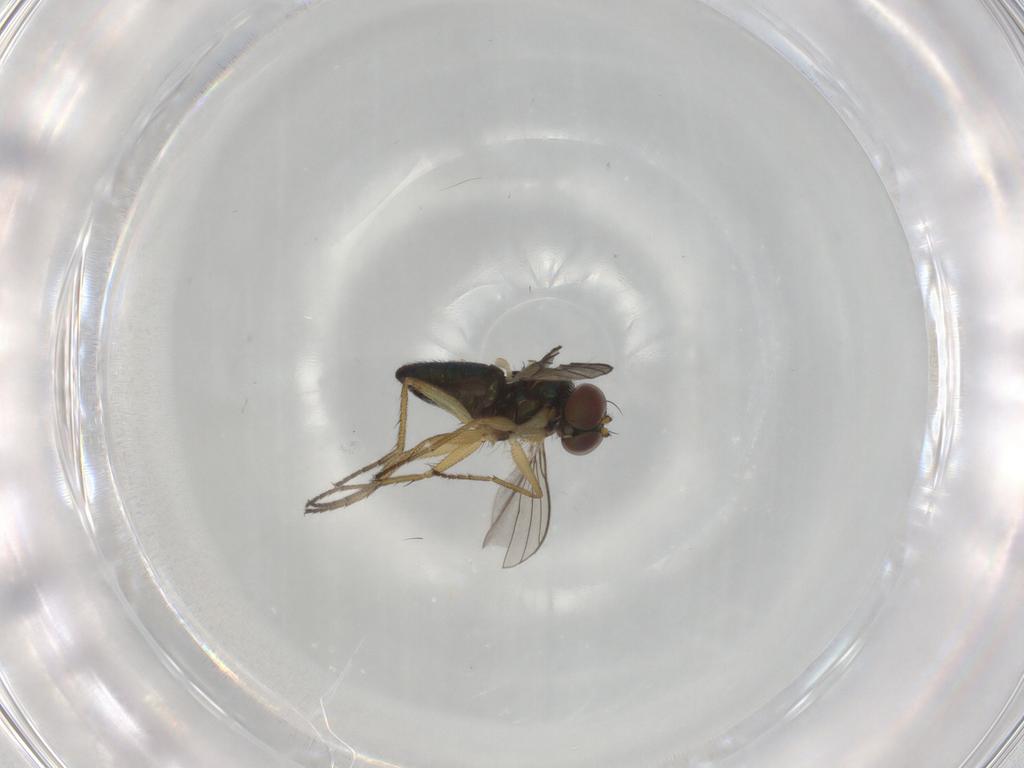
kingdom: Animalia
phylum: Arthropoda
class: Insecta
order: Diptera
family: Dolichopodidae
